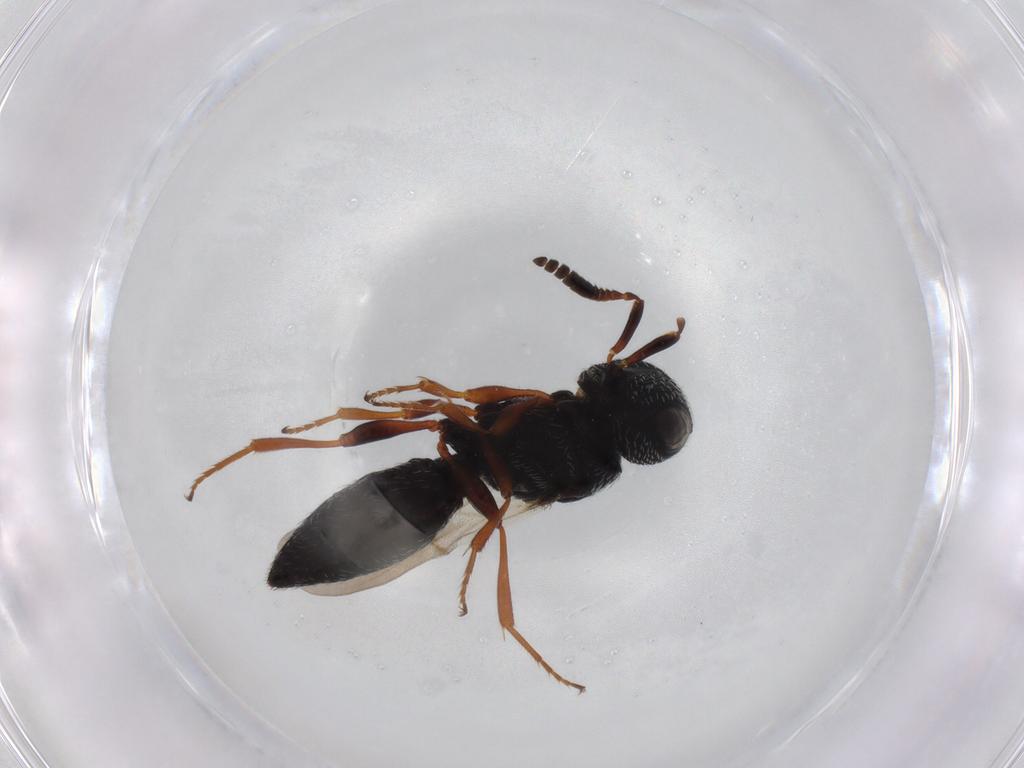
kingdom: Animalia
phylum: Arthropoda
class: Insecta
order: Hymenoptera
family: Scelionidae
